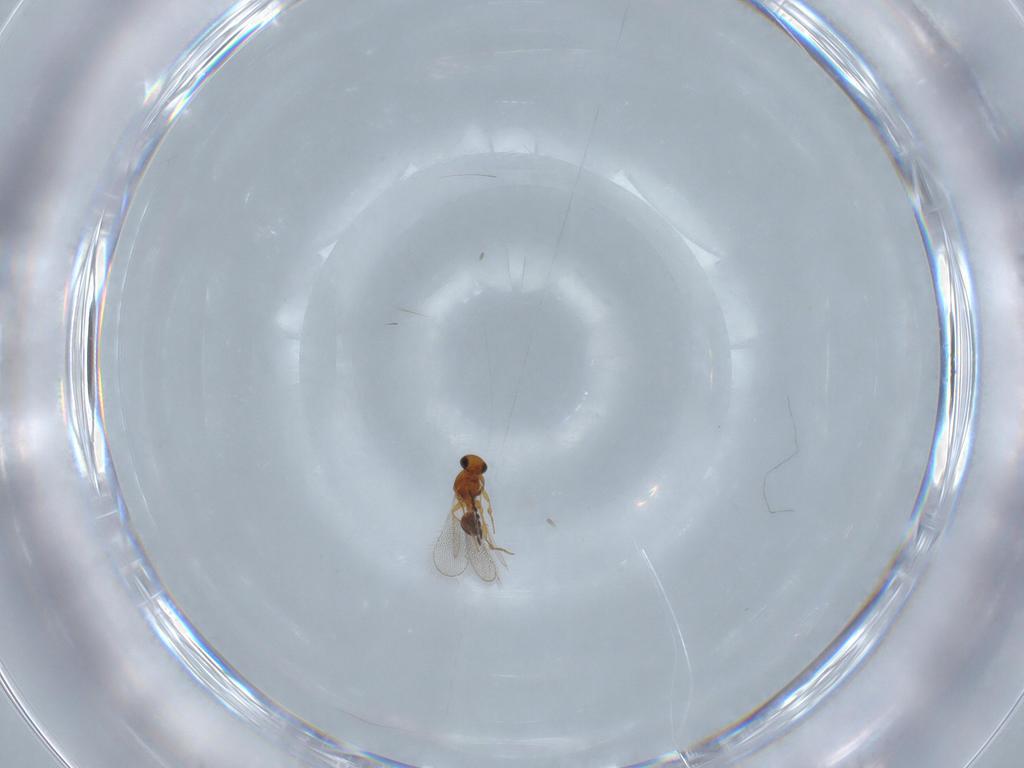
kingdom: Animalia
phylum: Arthropoda
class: Insecta
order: Hymenoptera
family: Platygastridae
